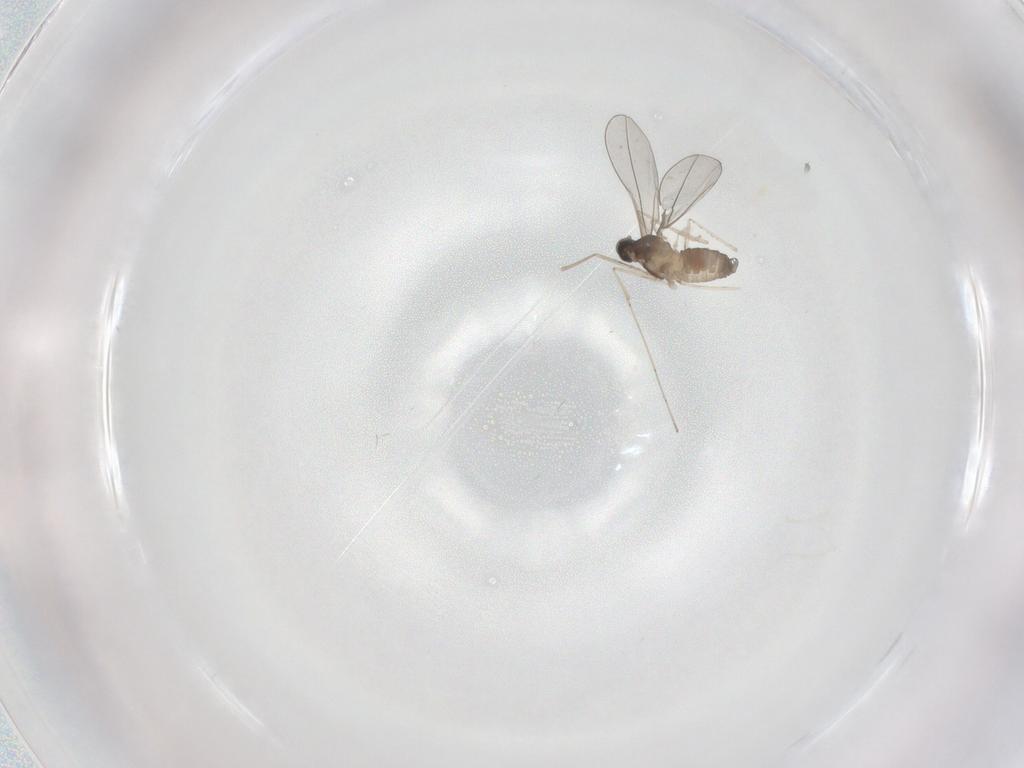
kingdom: Animalia
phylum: Arthropoda
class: Insecta
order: Diptera
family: Cecidomyiidae
